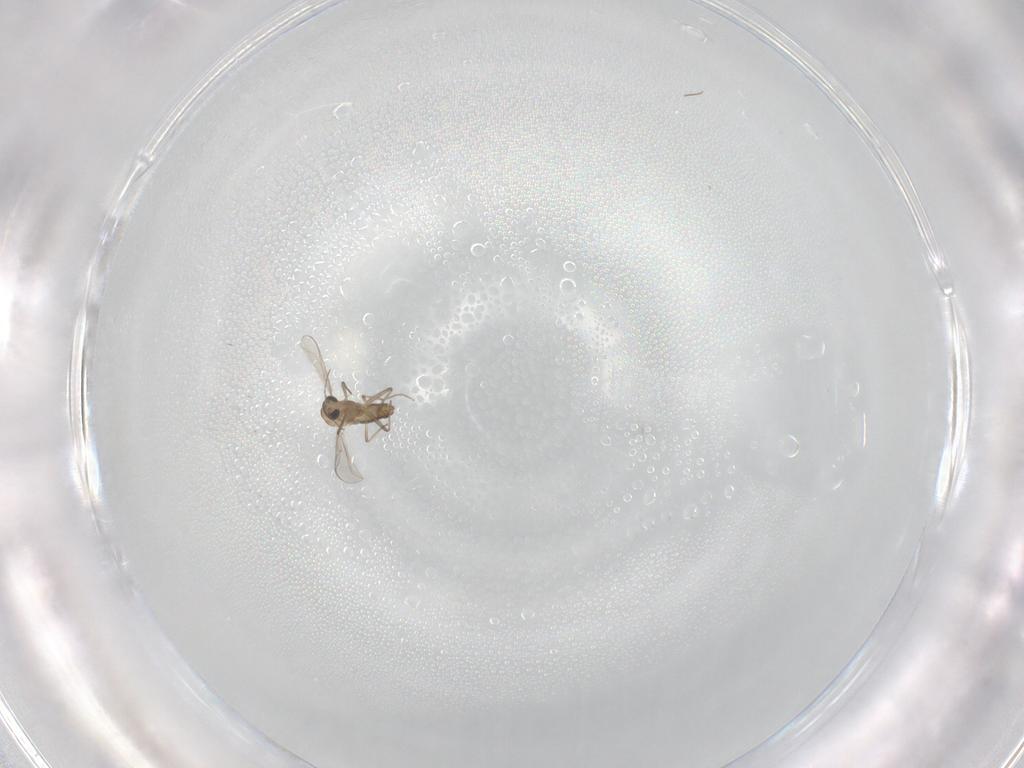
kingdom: Animalia
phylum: Arthropoda
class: Insecta
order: Diptera
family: Chironomidae
